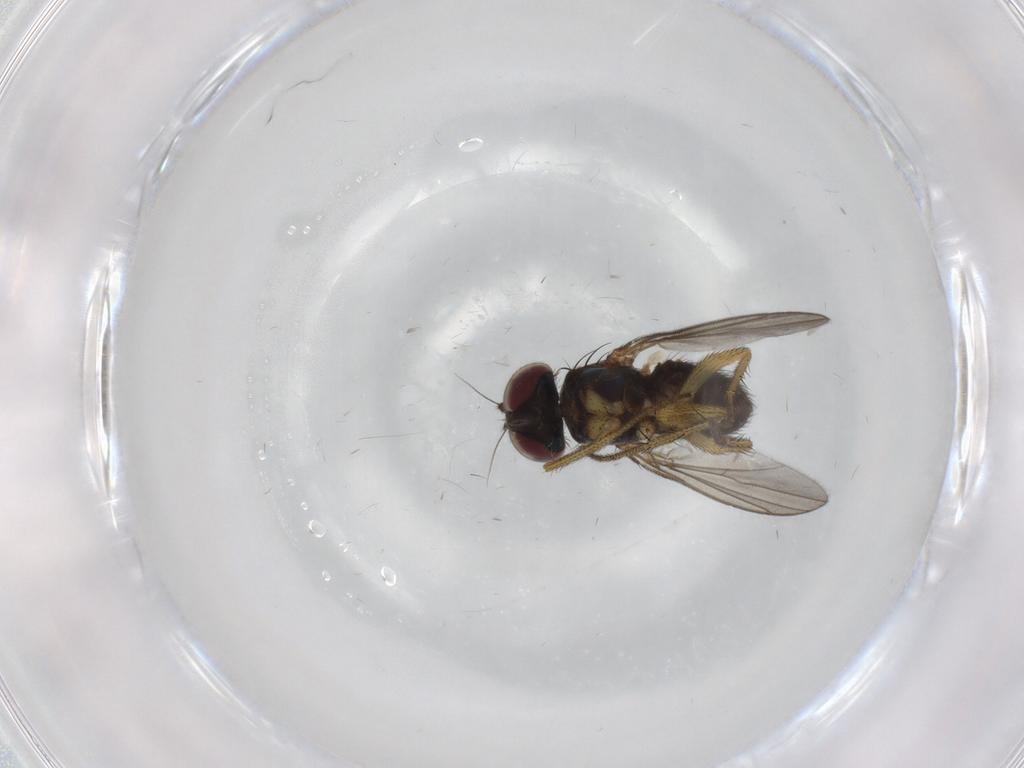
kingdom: Animalia
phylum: Arthropoda
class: Insecta
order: Diptera
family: Dolichopodidae
